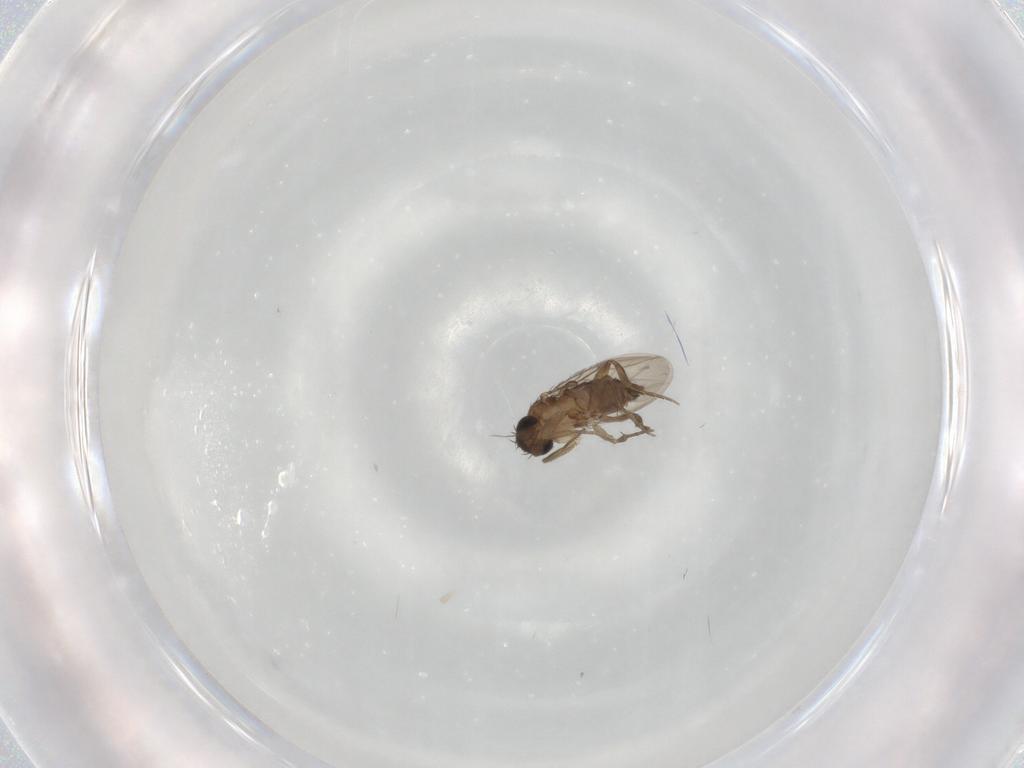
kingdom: Animalia
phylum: Arthropoda
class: Insecta
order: Diptera
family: Phoridae
